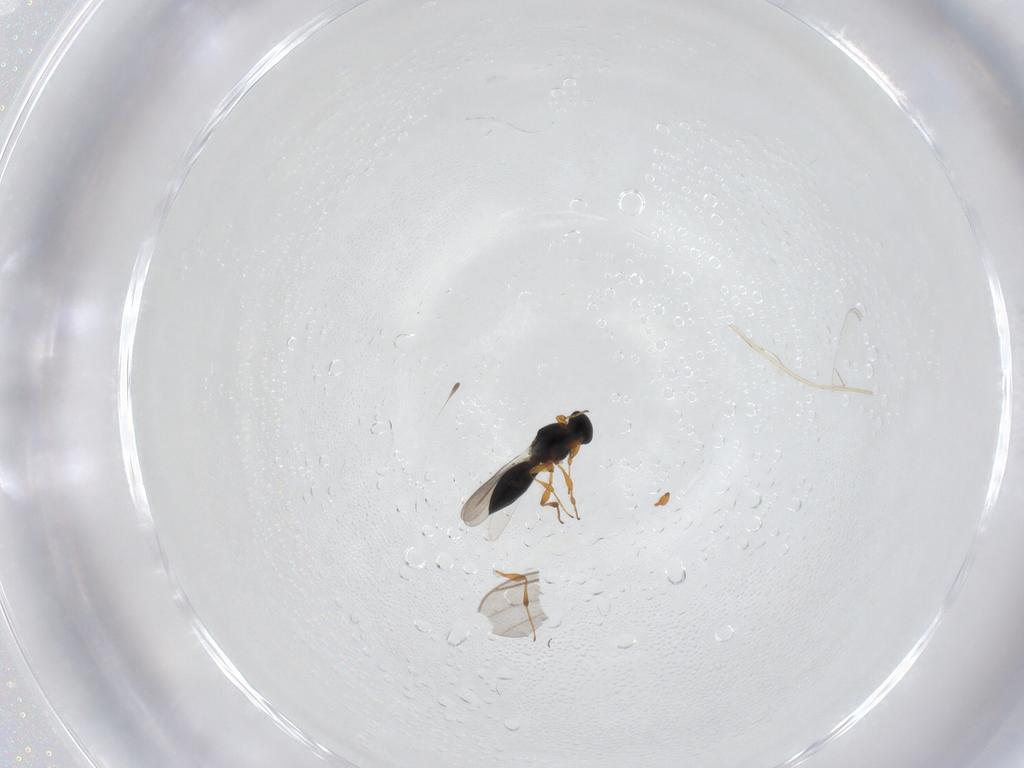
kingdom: Animalia
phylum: Arthropoda
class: Insecta
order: Hymenoptera
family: Platygastridae
